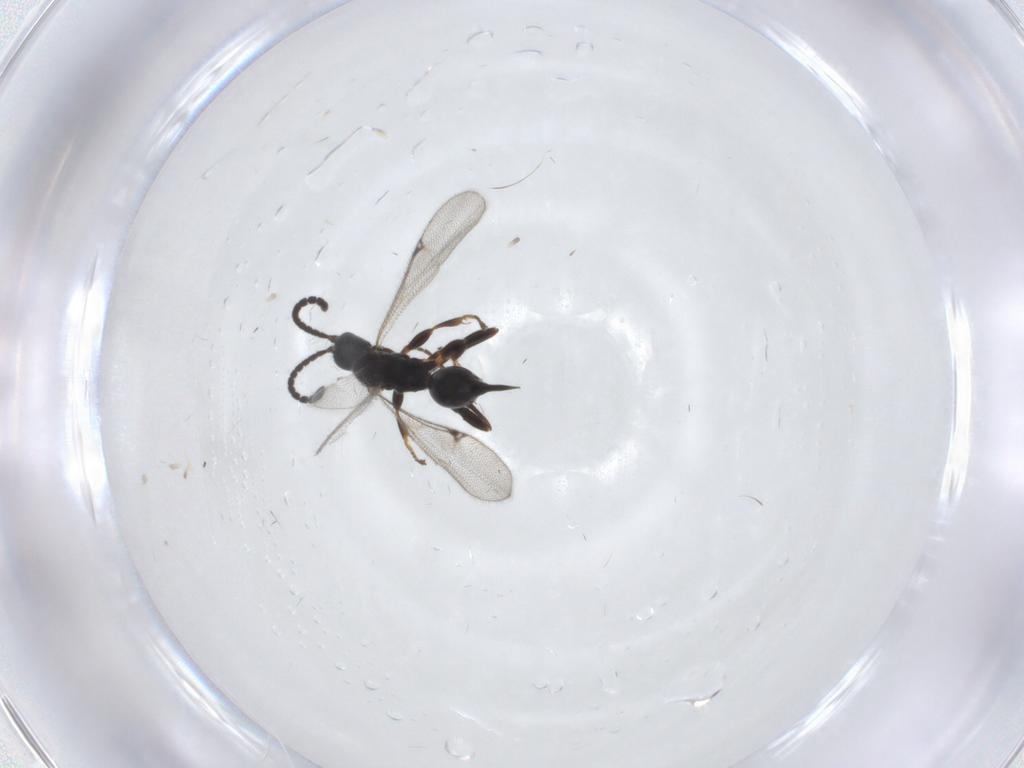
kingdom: Animalia
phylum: Arthropoda
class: Insecta
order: Hymenoptera
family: Proctotrupidae
